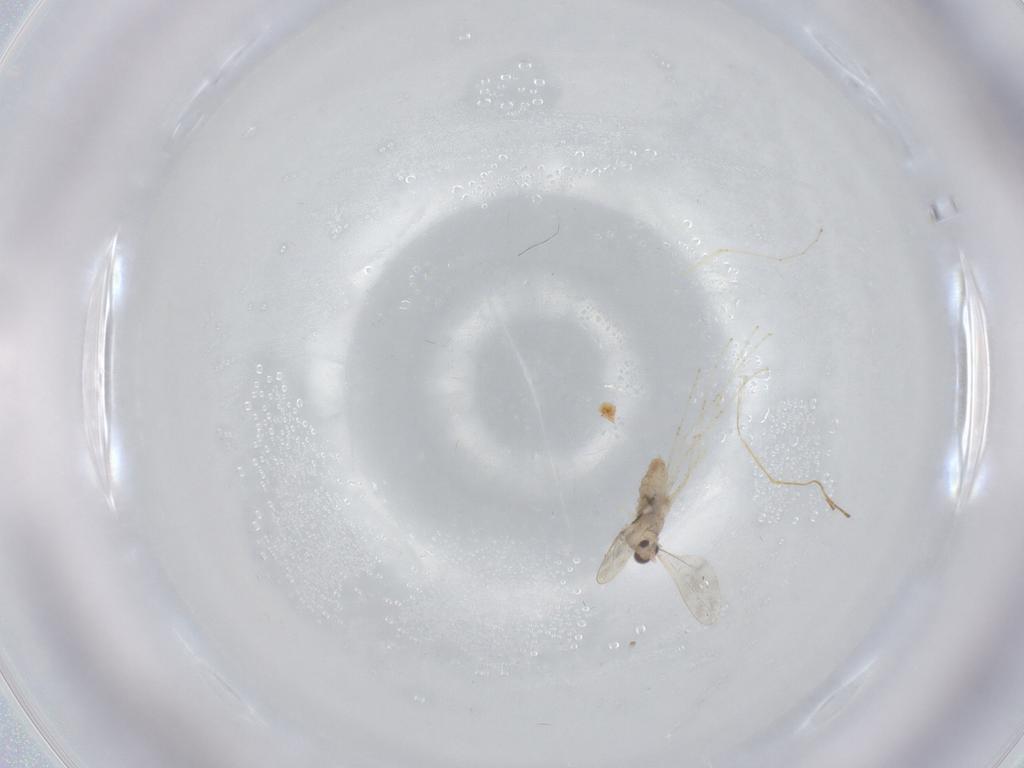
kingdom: Animalia
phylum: Arthropoda
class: Insecta
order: Diptera
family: Cecidomyiidae
